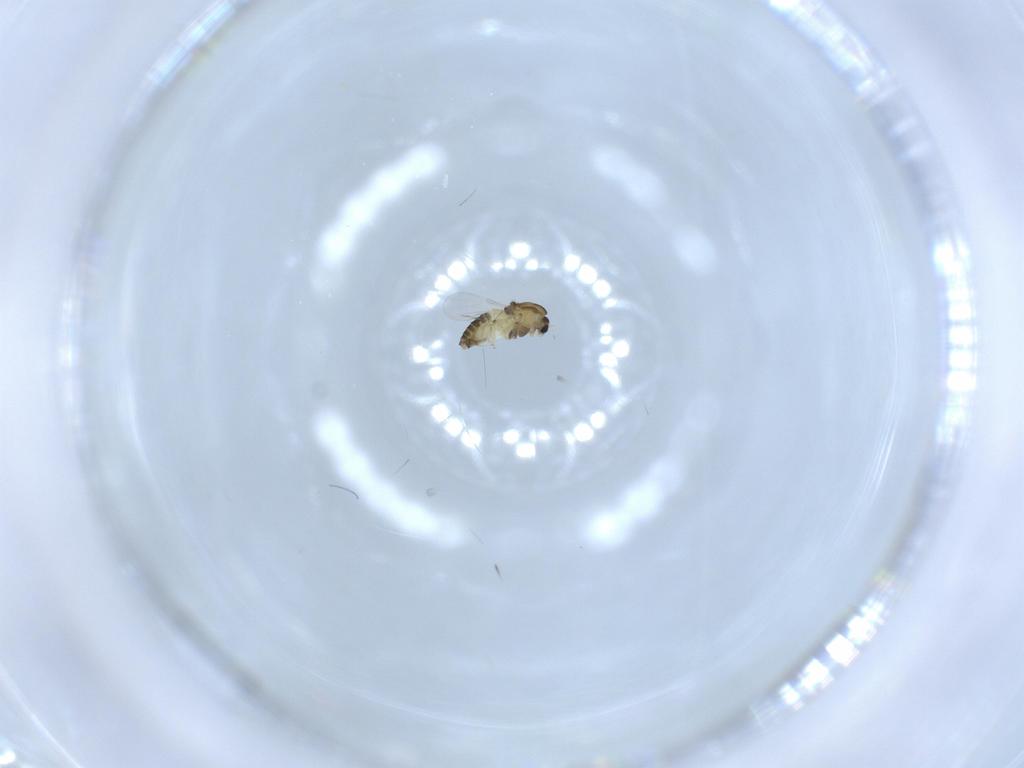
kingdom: Animalia
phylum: Arthropoda
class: Insecta
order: Diptera
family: Chironomidae
